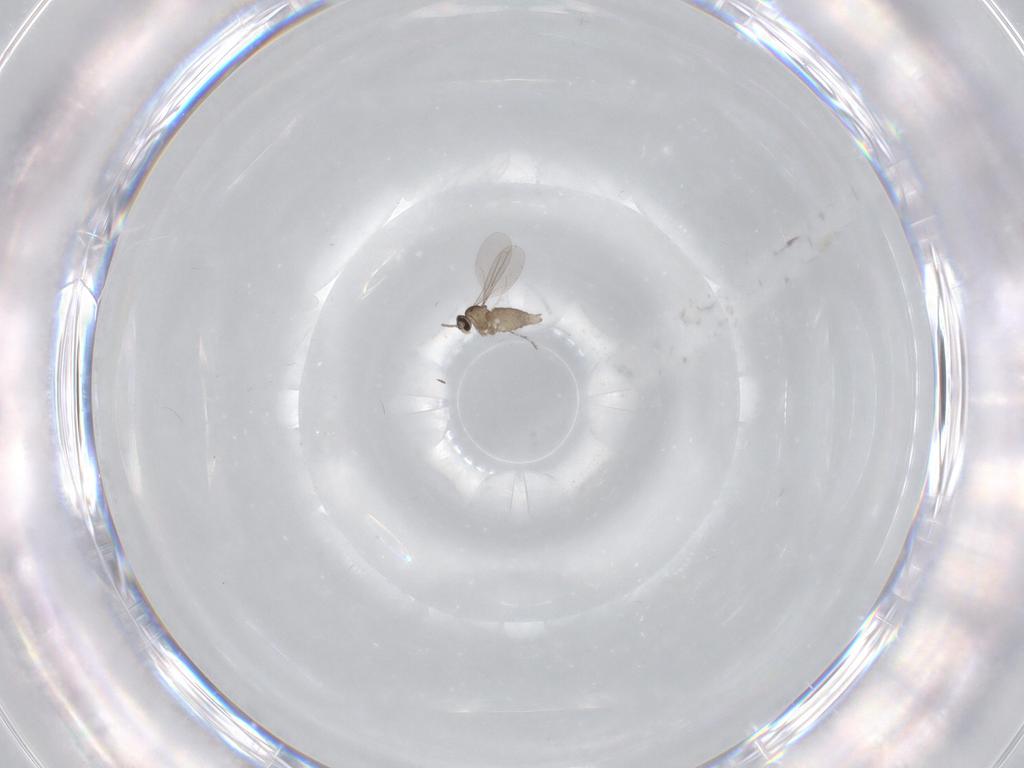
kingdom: Animalia
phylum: Arthropoda
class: Insecta
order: Diptera
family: Cecidomyiidae
